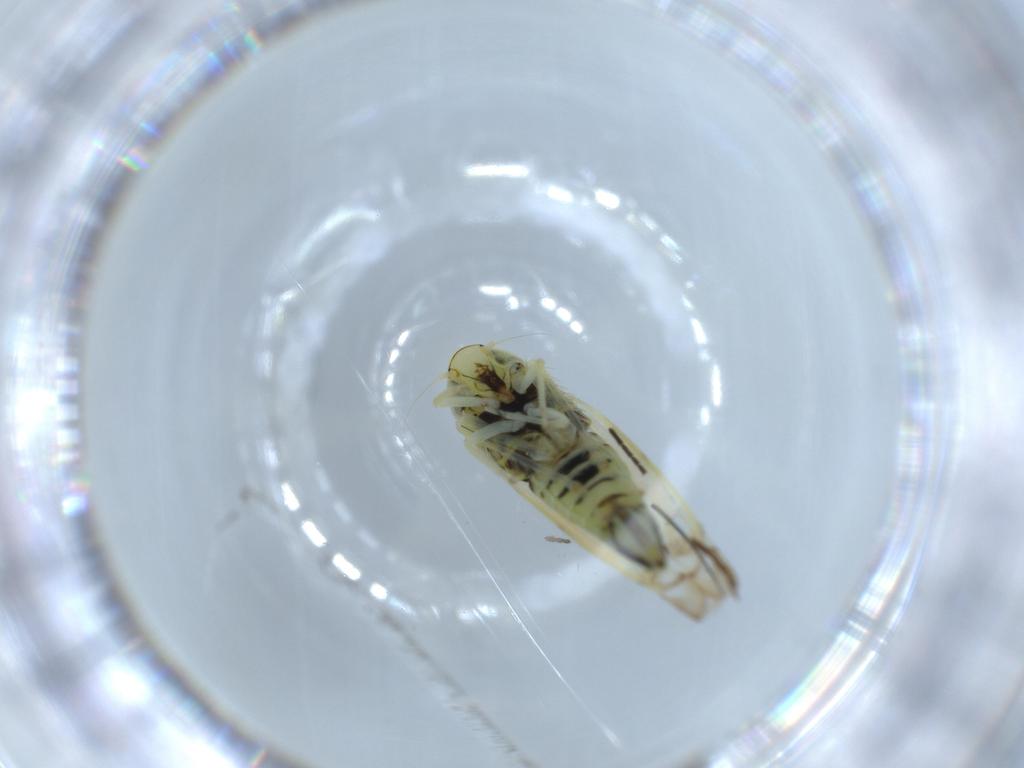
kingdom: Animalia
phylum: Arthropoda
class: Insecta
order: Hemiptera
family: Cicadellidae
